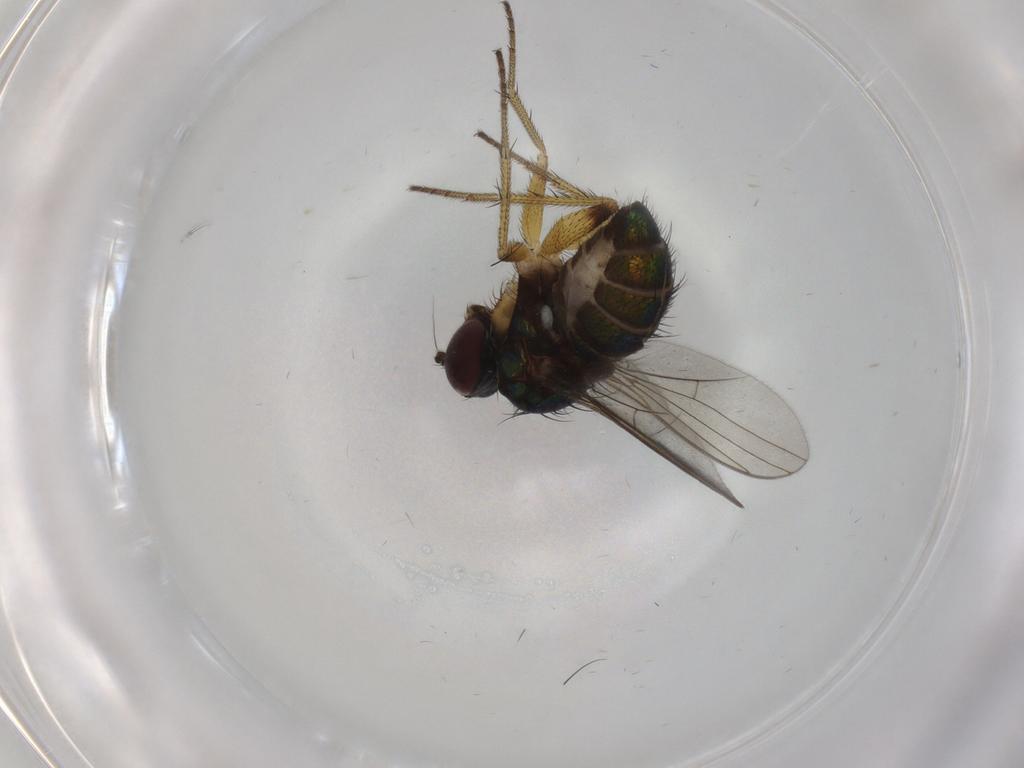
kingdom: Animalia
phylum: Arthropoda
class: Insecta
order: Diptera
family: Dolichopodidae
